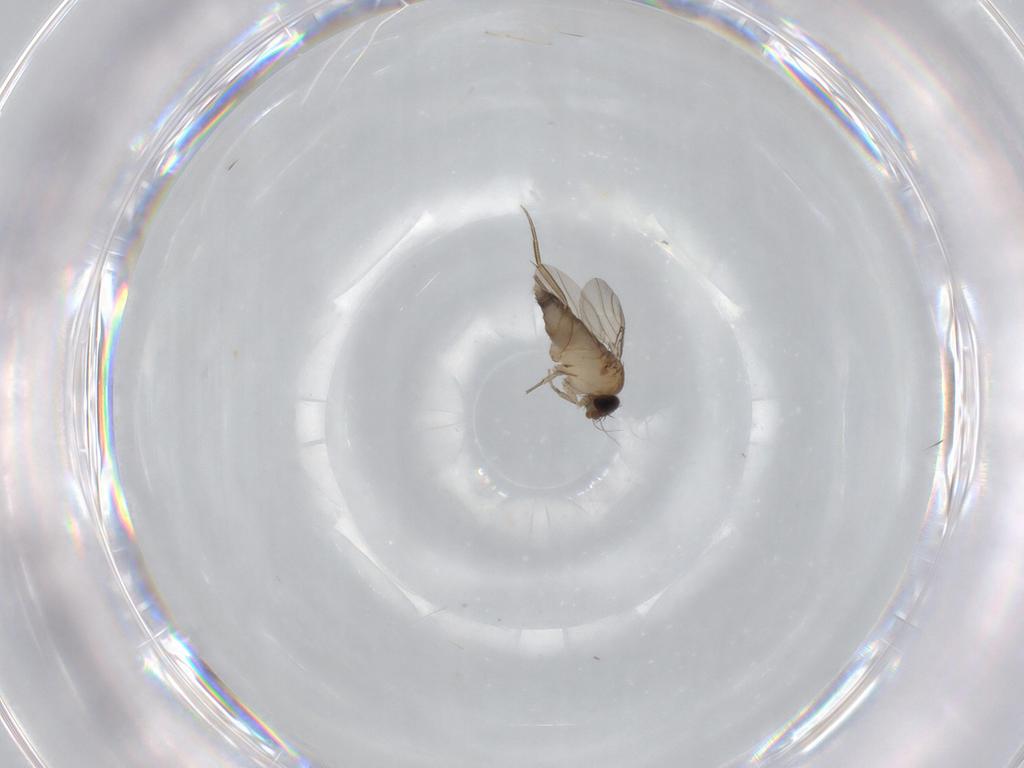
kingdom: Animalia
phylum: Arthropoda
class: Insecta
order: Diptera
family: Phoridae
